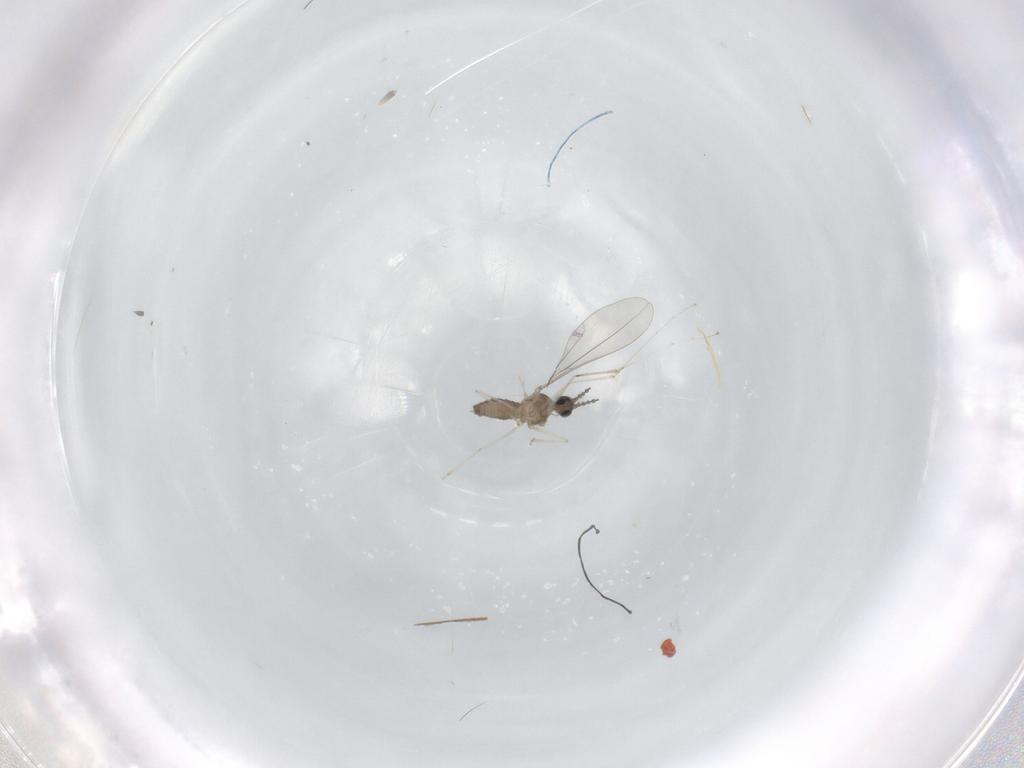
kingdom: Animalia
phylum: Arthropoda
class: Insecta
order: Diptera
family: Cecidomyiidae
